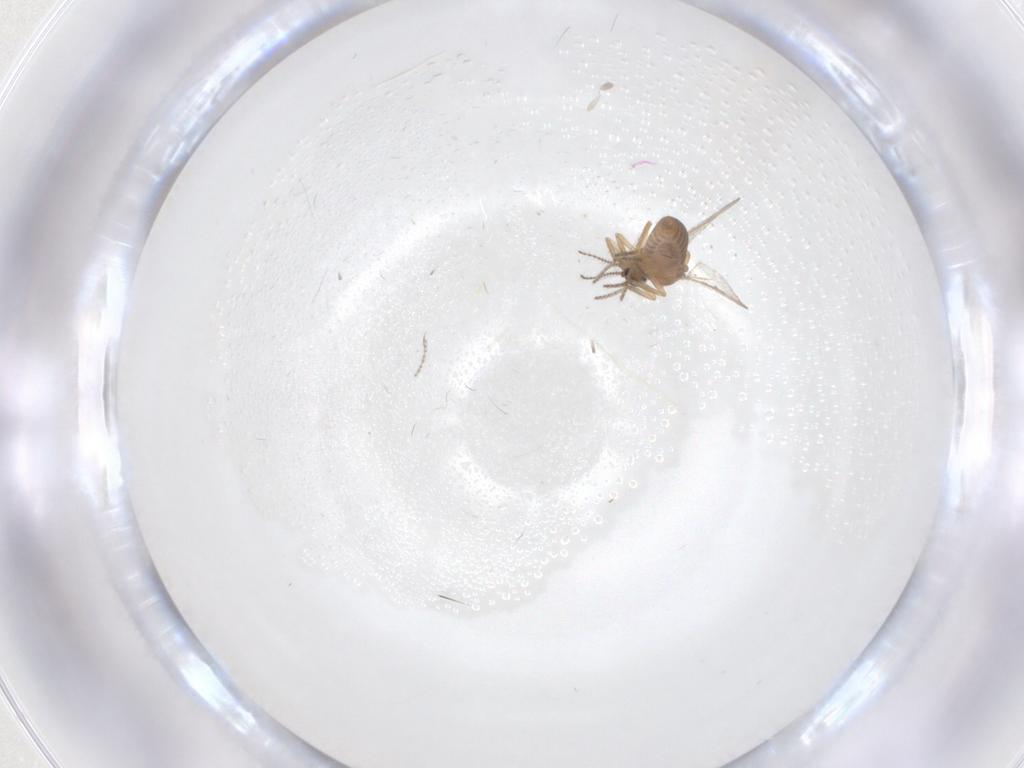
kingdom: Animalia
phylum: Arthropoda
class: Insecta
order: Diptera
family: Ceratopogonidae
